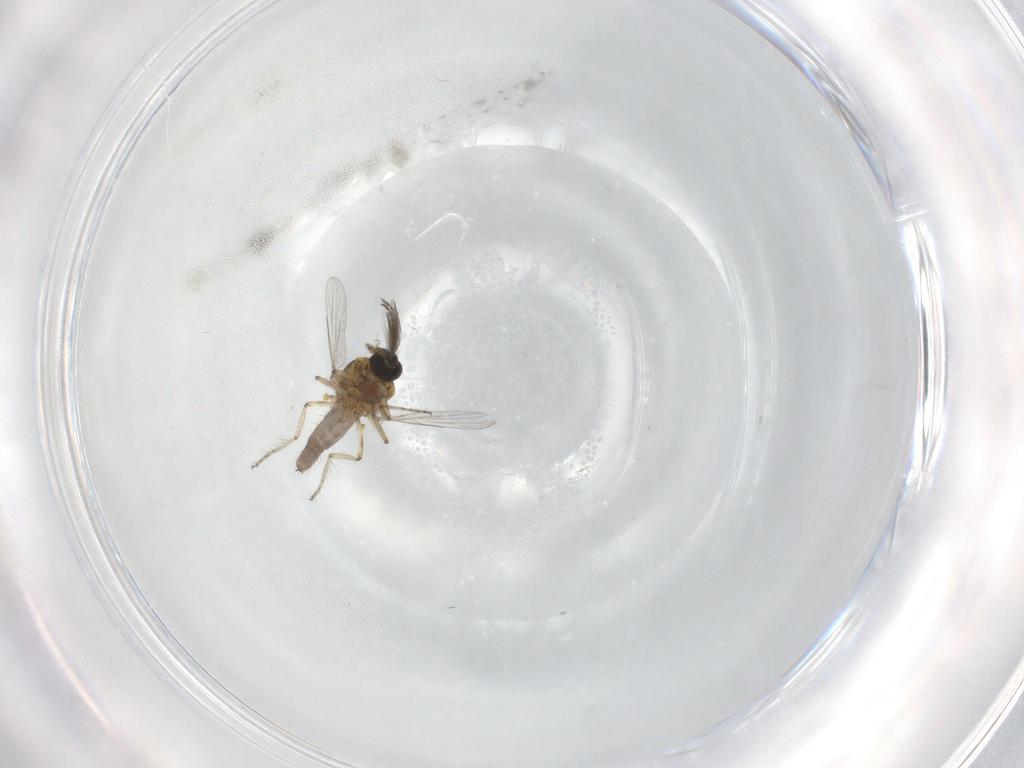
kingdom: Animalia
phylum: Arthropoda
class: Insecta
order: Diptera
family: Ceratopogonidae
